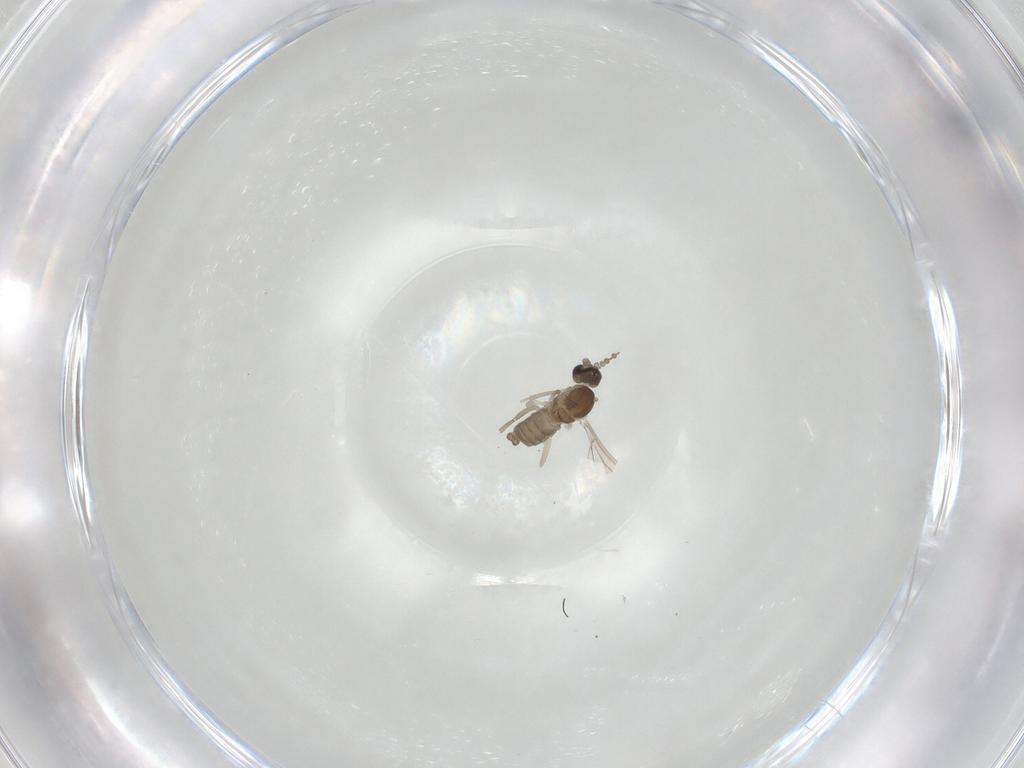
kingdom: Animalia
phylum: Arthropoda
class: Insecta
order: Diptera
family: Cecidomyiidae
